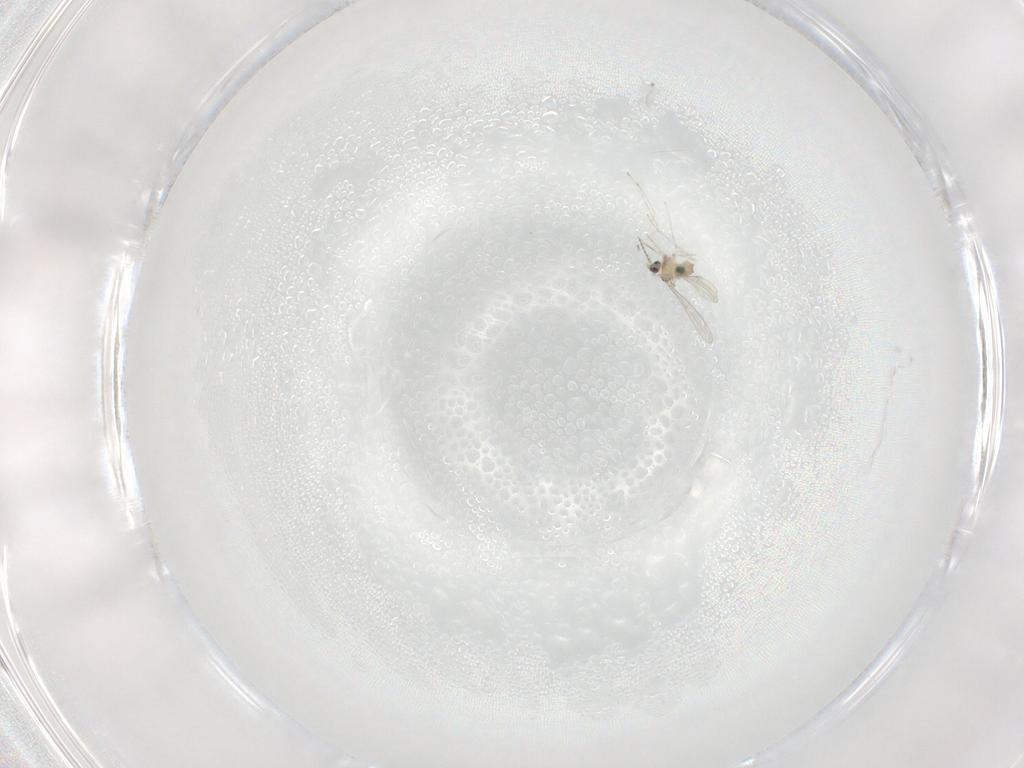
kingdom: Animalia
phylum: Arthropoda
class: Insecta
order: Diptera
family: Cecidomyiidae
